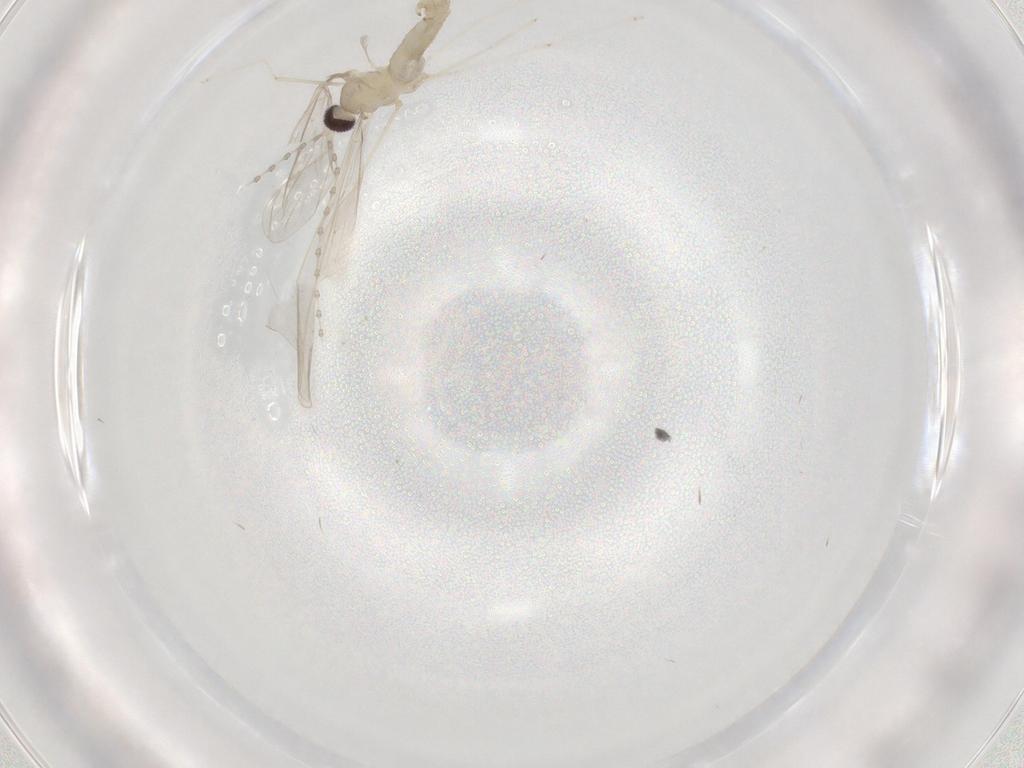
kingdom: Animalia
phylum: Arthropoda
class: Insecta
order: Diptera
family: Cecidomyiidae
